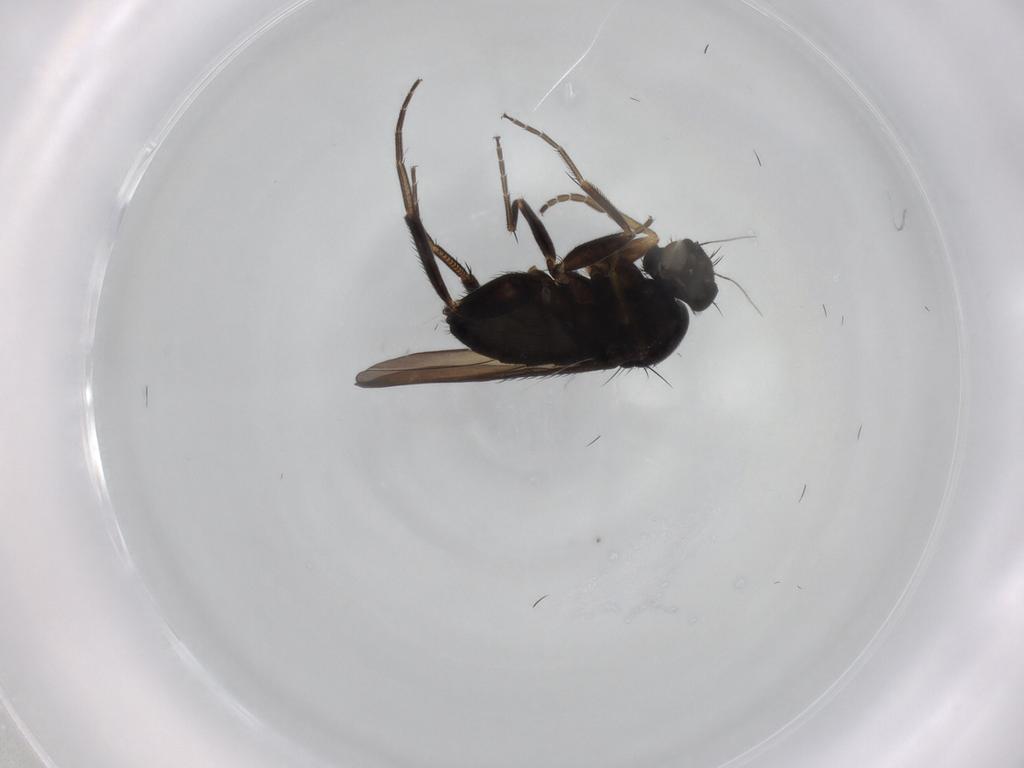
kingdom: Animalia
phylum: Arthropoda
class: Insecta
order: Diptera
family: Phoridae
